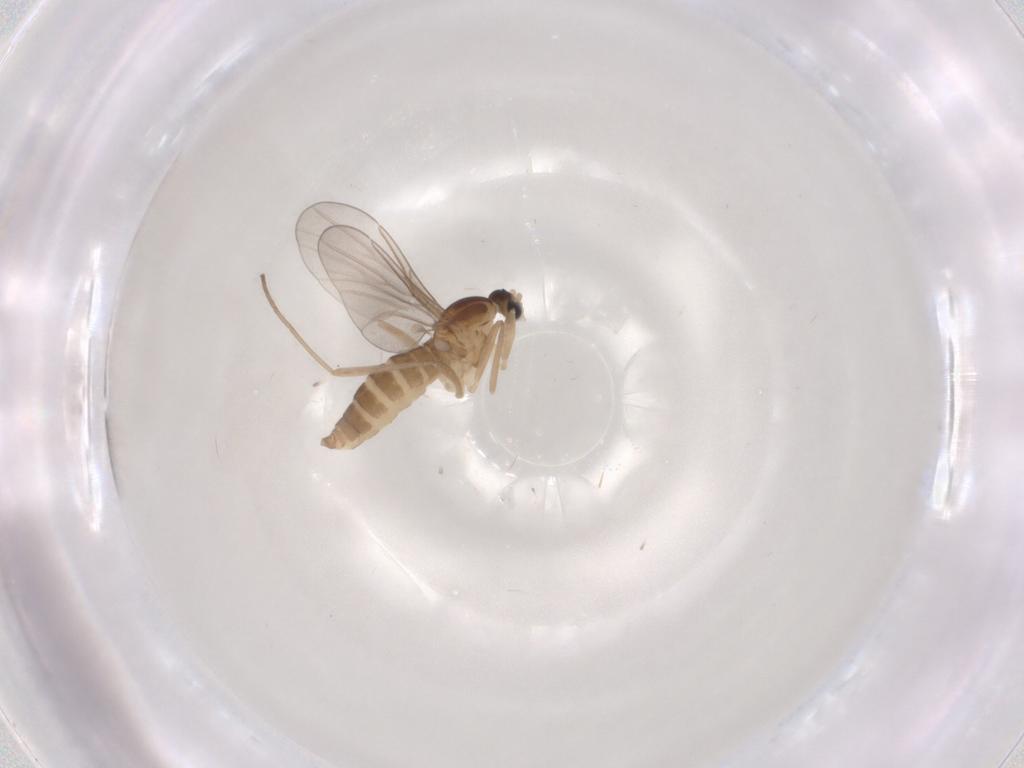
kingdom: Animalia
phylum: Arthropoda
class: Insecta
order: Diptera
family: Cecidomyiidae
